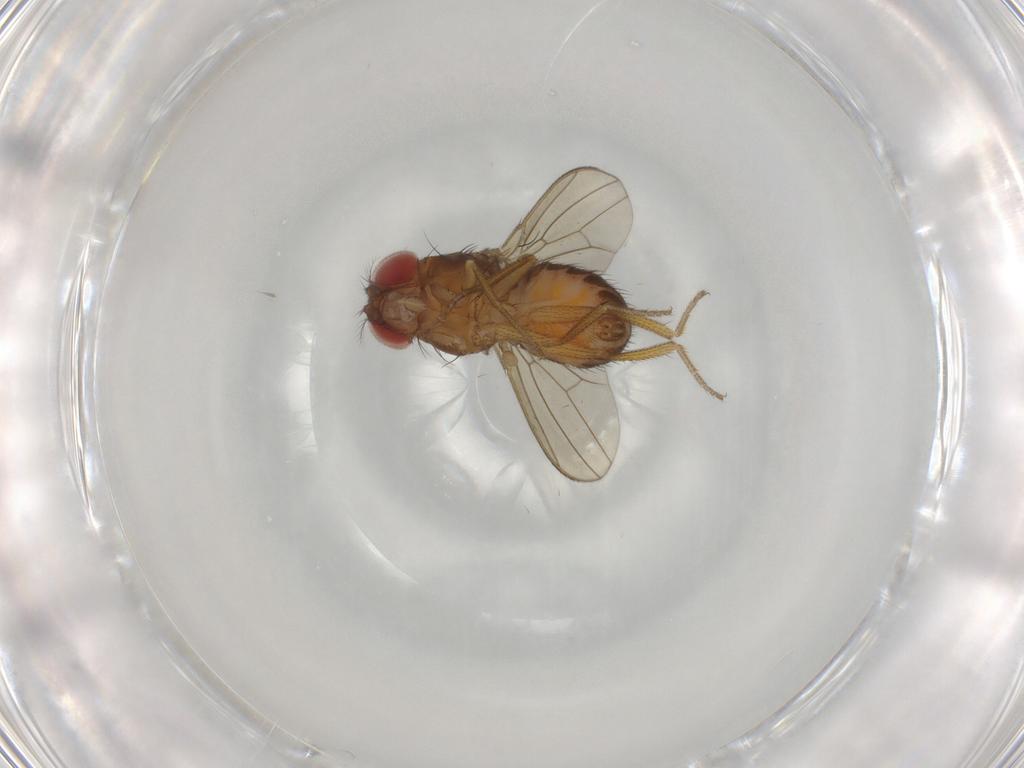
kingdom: Animalia
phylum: Arthropoda
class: Insecta
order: Diptera
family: Drosophilidae
